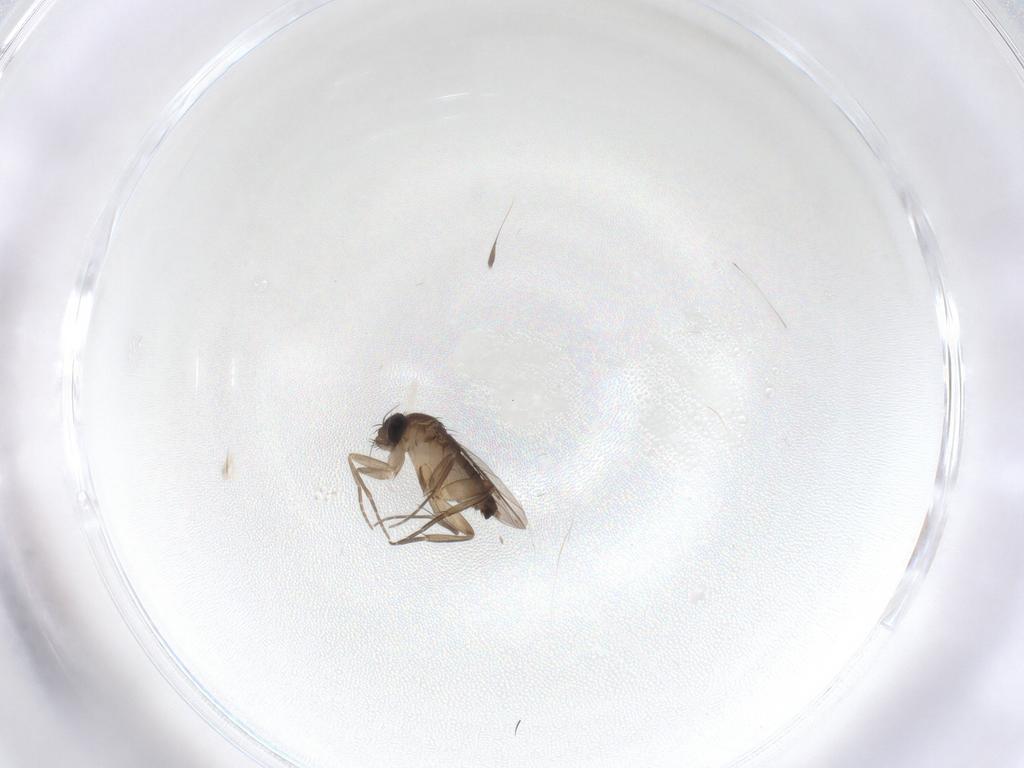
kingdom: Animalia
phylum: Arthropoda
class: Insecta
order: Diptera
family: Phoridae
